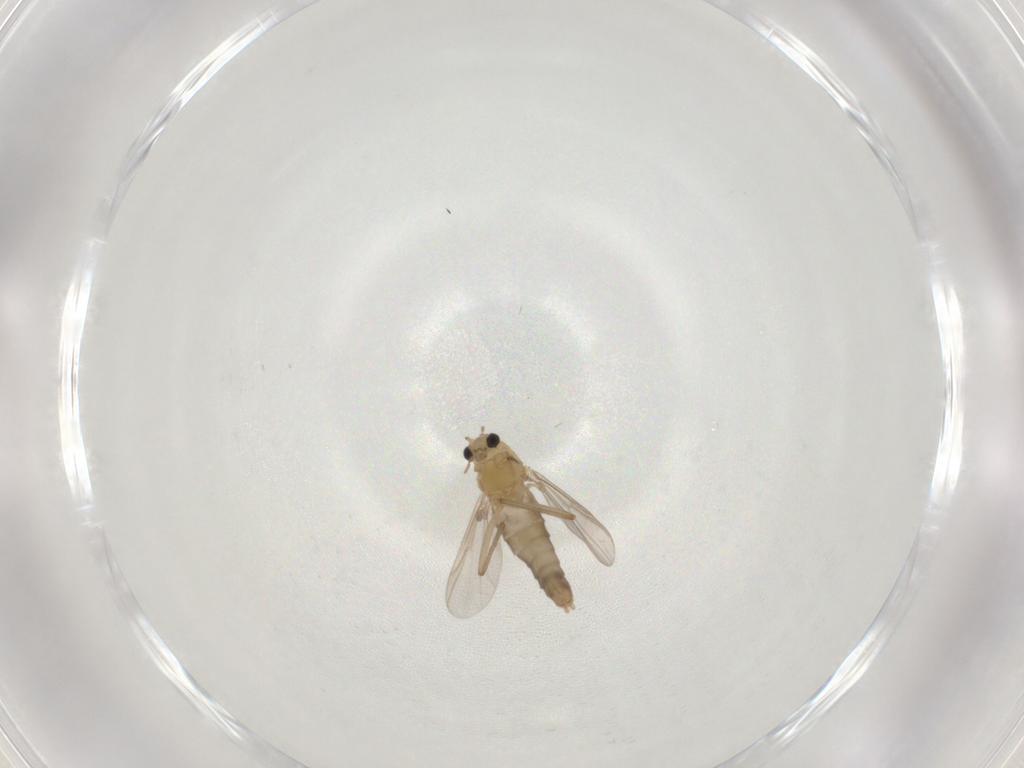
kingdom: Animalia
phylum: Arthropoda
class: Insecta
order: Diptera
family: Chironomidae
